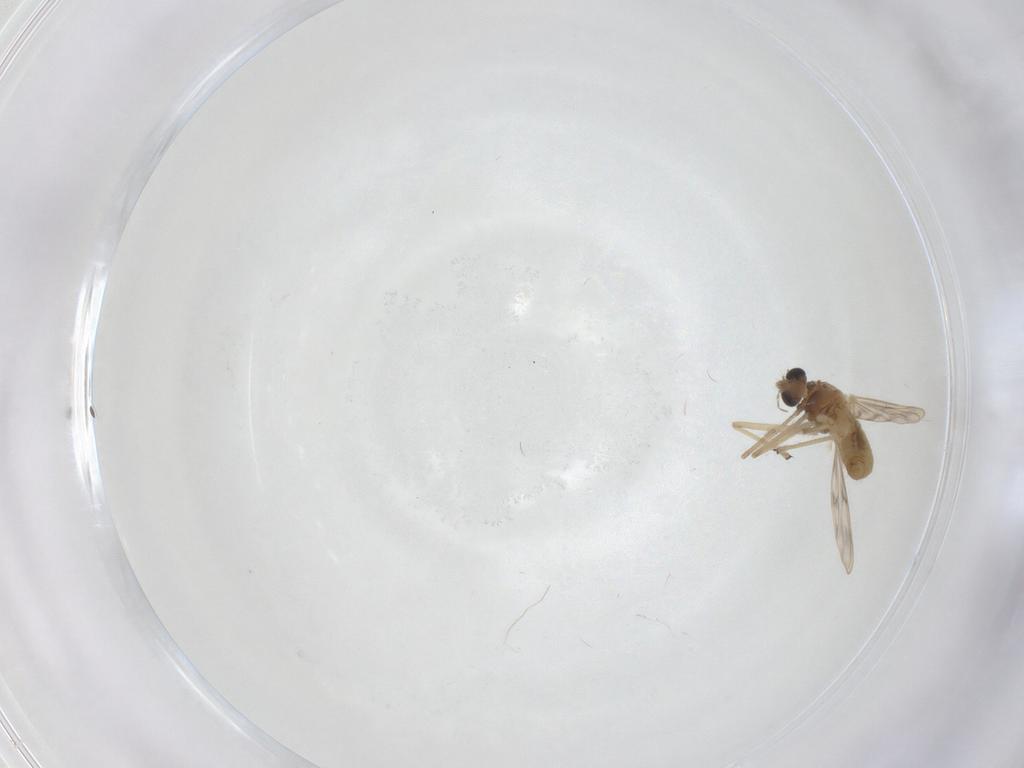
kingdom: Animalia
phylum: Arthropoda
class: Insecta
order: Diptera
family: Chironomidae
